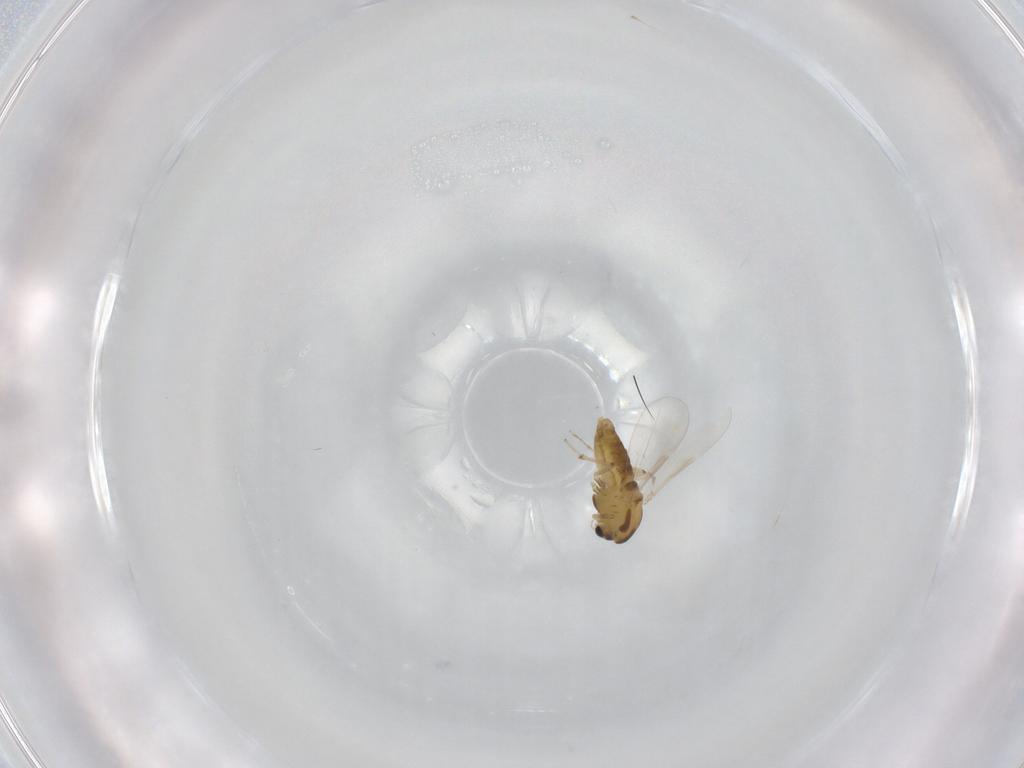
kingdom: Animalia
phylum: Arthropoda
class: Insecta
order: Diptera
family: Chironomidae
